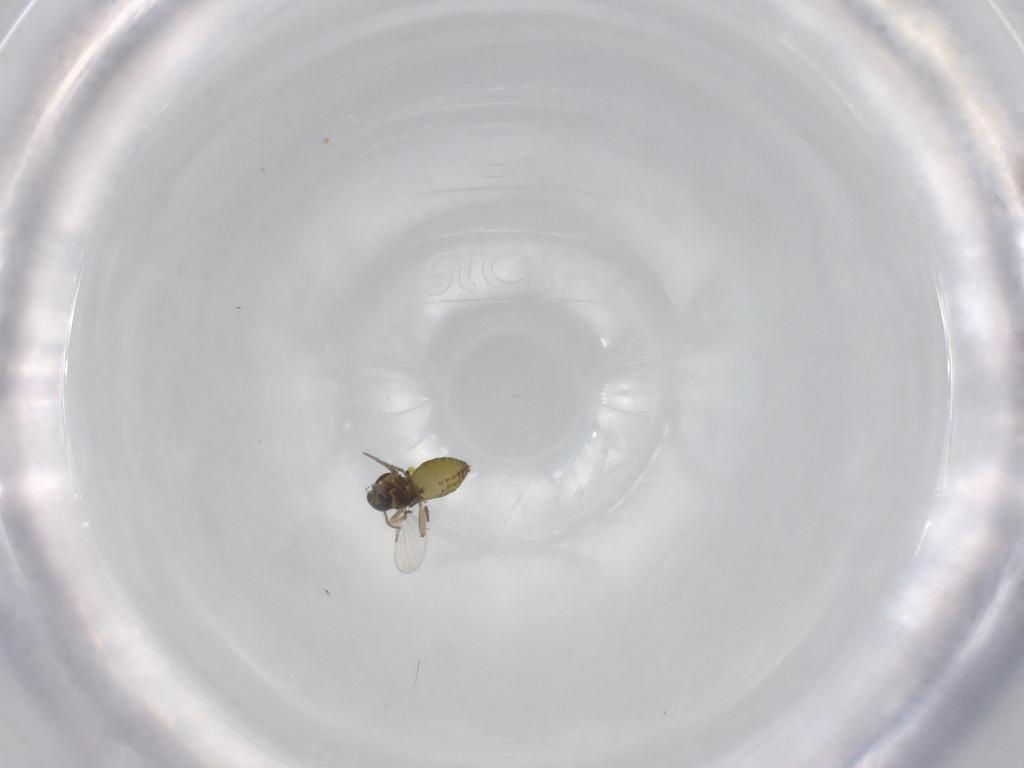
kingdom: Animalia
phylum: Arthropoda
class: Insecta
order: Diptera
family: Ceratopogonidae
